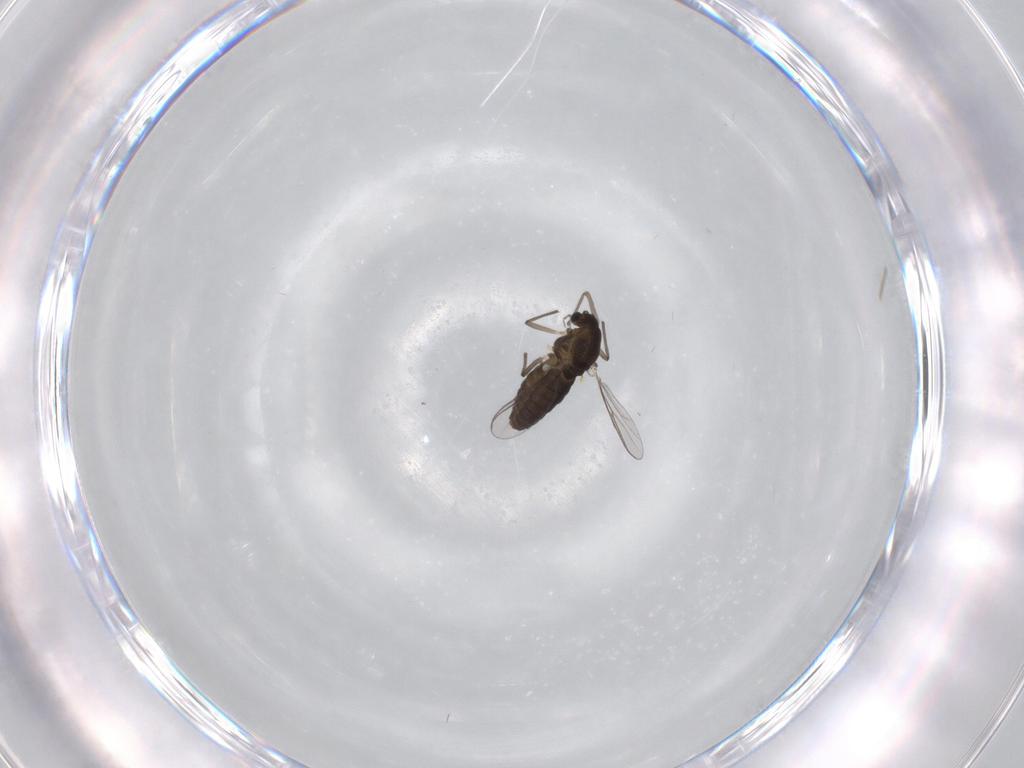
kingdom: Animalia
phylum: Arthropoda
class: Insecta
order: Diptera
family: Chironomidae
